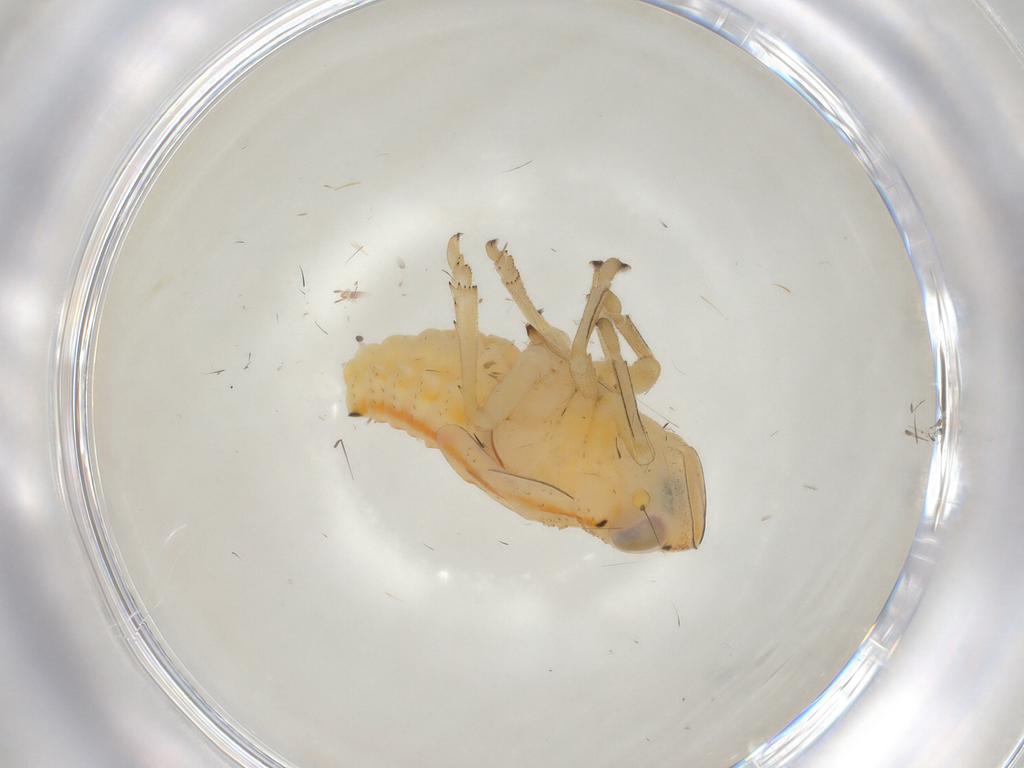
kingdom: Animalia
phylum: Arthropoda
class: Insecta
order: Hemiptera
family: Issidae
